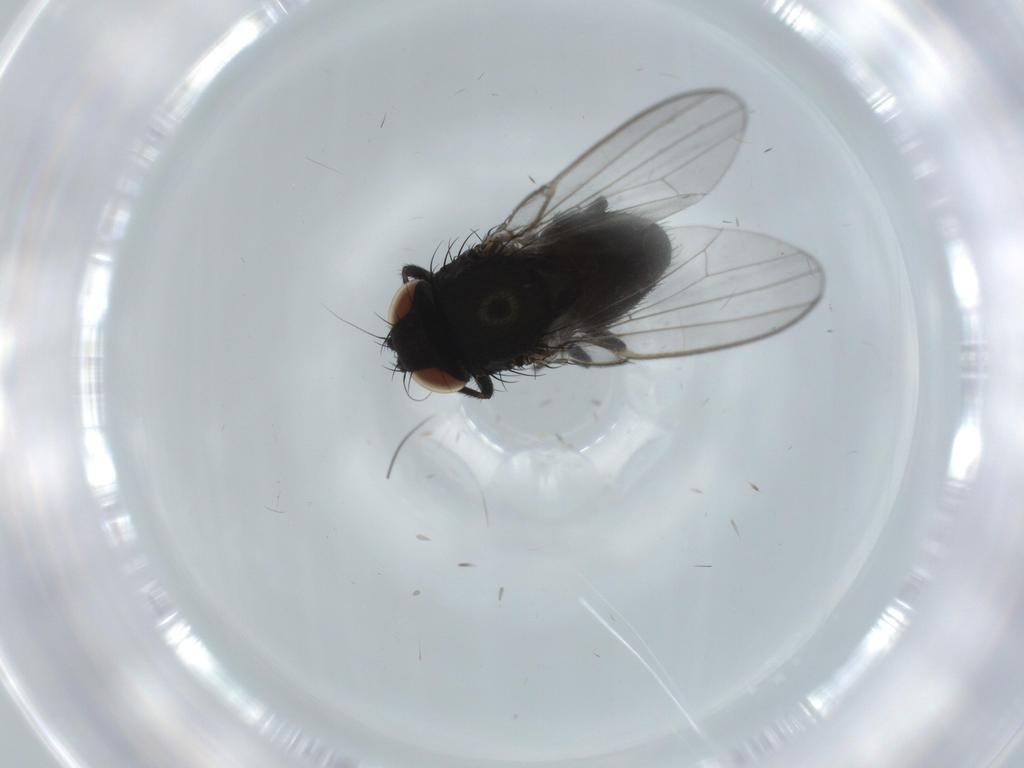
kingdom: Animalia
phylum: Arthropoda
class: Insecta
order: Diptera
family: Milichiidae
